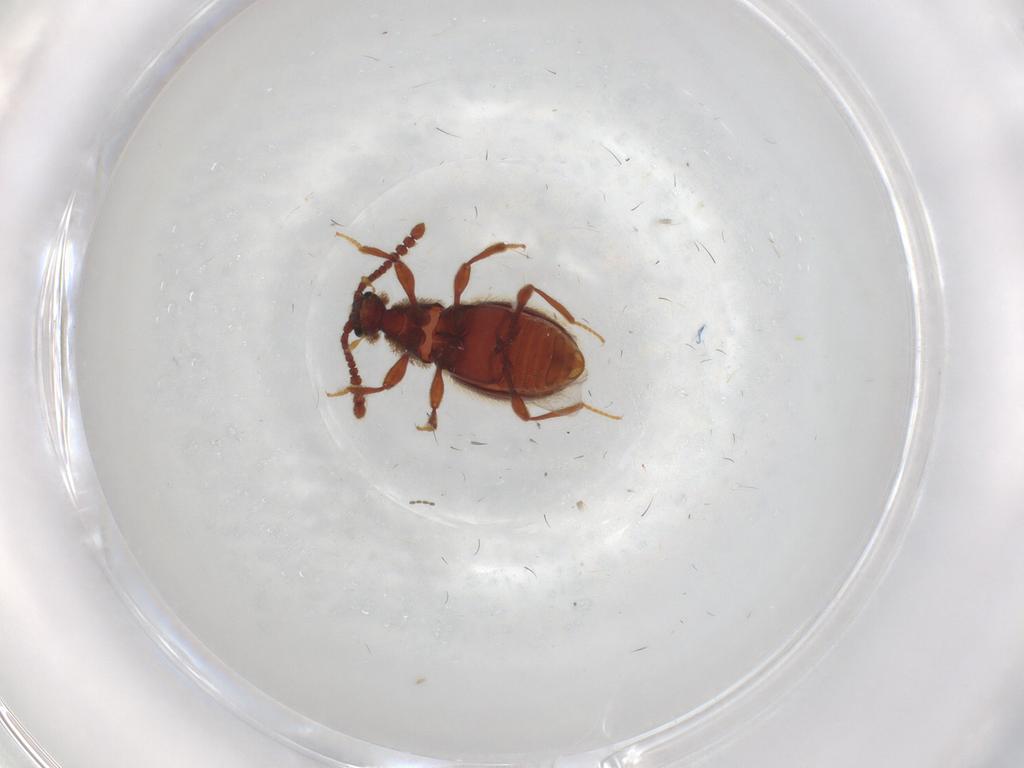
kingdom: Animalia
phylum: Arthropoda
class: Insecta
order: Coleoptera
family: Staphylinidae
